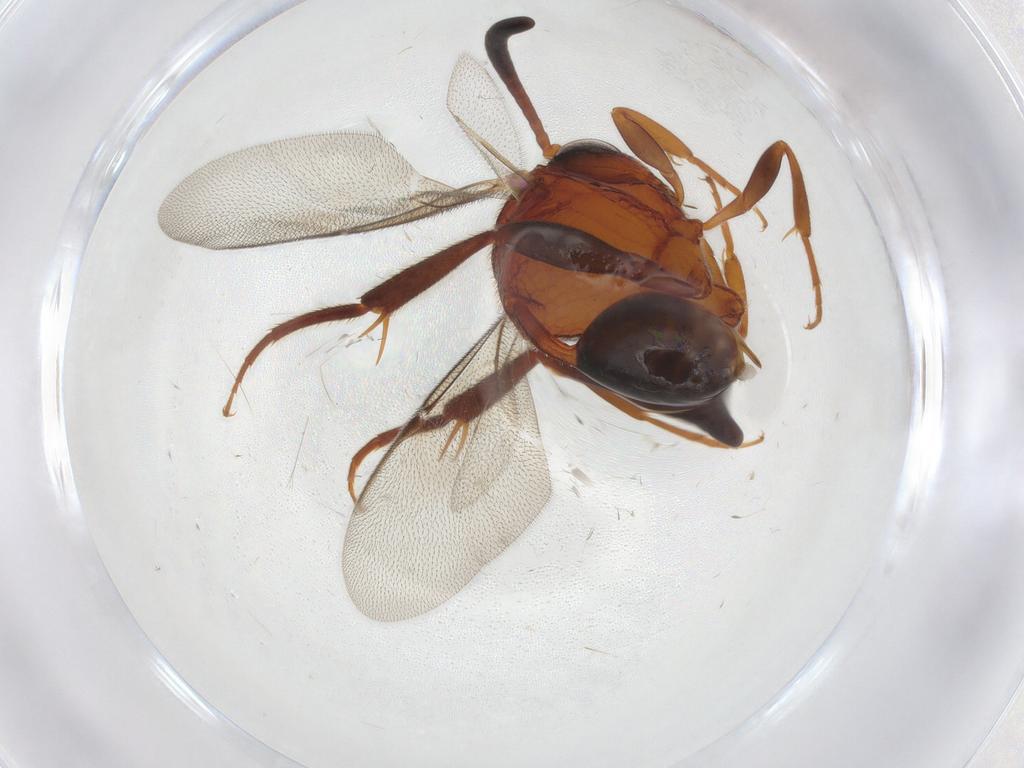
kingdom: Animalia
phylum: Arthropoda
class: Insecta
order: Hymenoptera
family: Evaniidae
